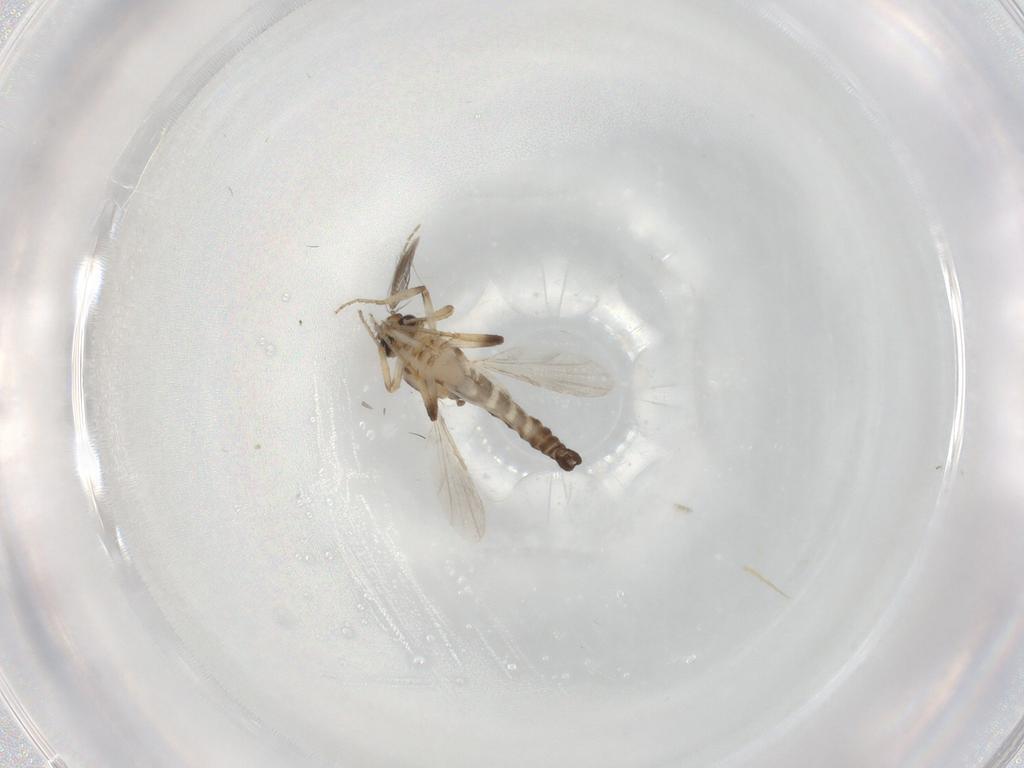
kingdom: Animalia
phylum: Arthropoda
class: Insecta
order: Diptera
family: Ceratopogonidae
